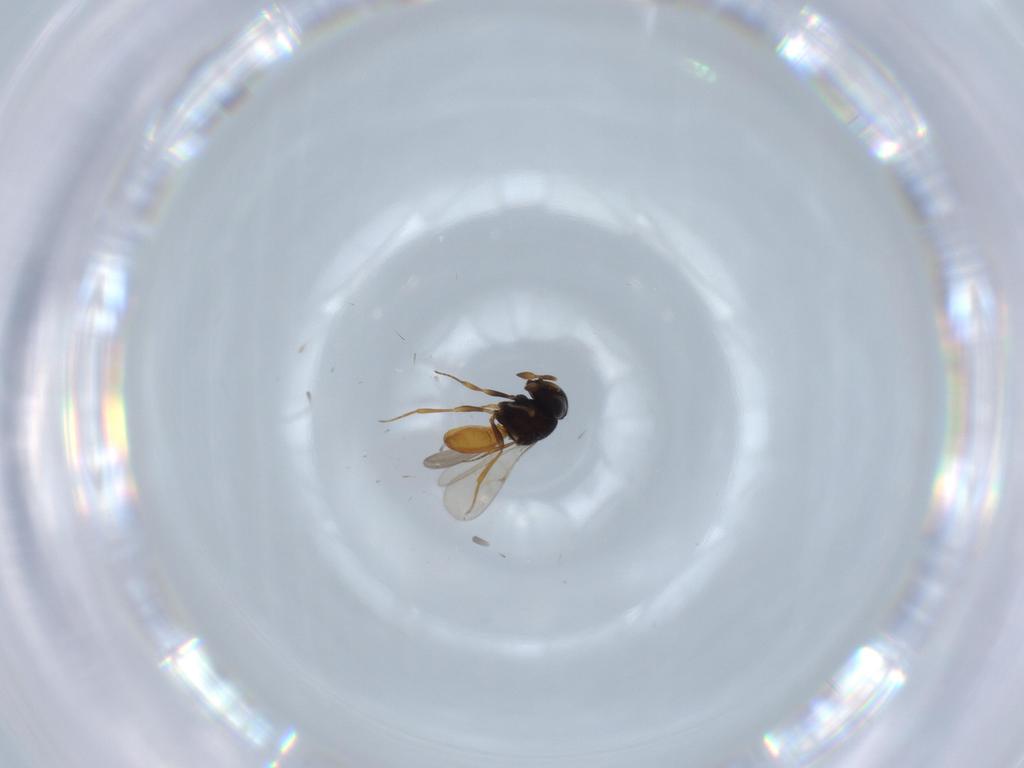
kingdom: Animalia
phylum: Arthropoda
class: Insecta
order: Hymenoptera
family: Scelionidae
